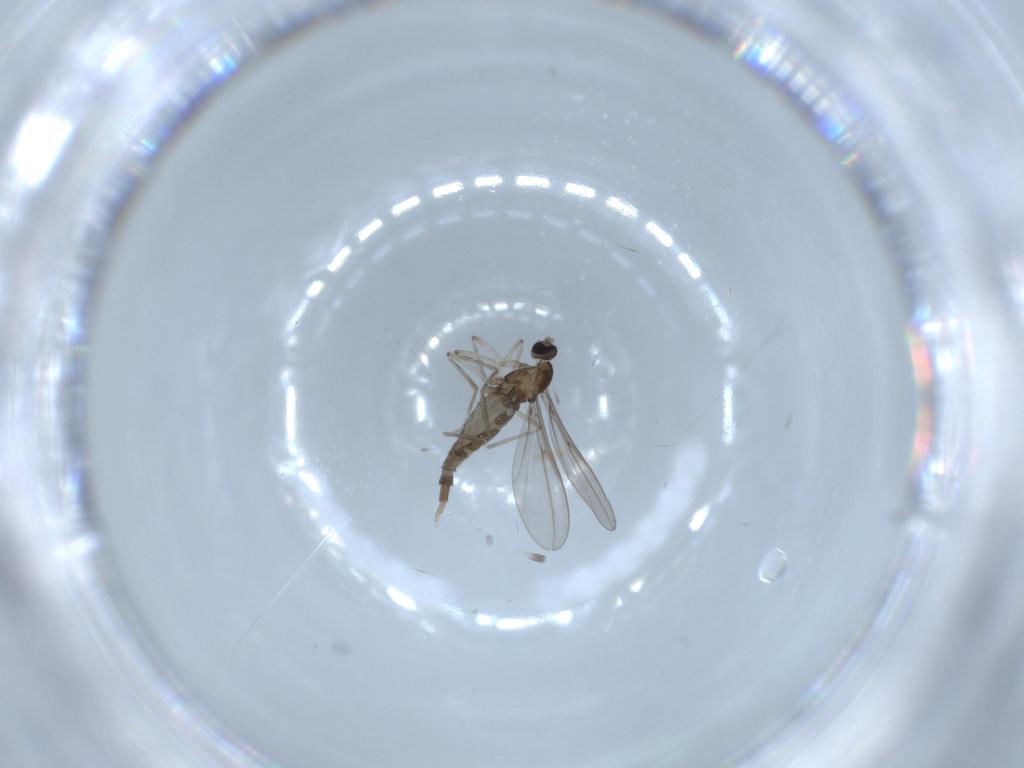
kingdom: Animalia
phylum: Arthropoda
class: Insecta
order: Diptera
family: Cecidomyiidae
